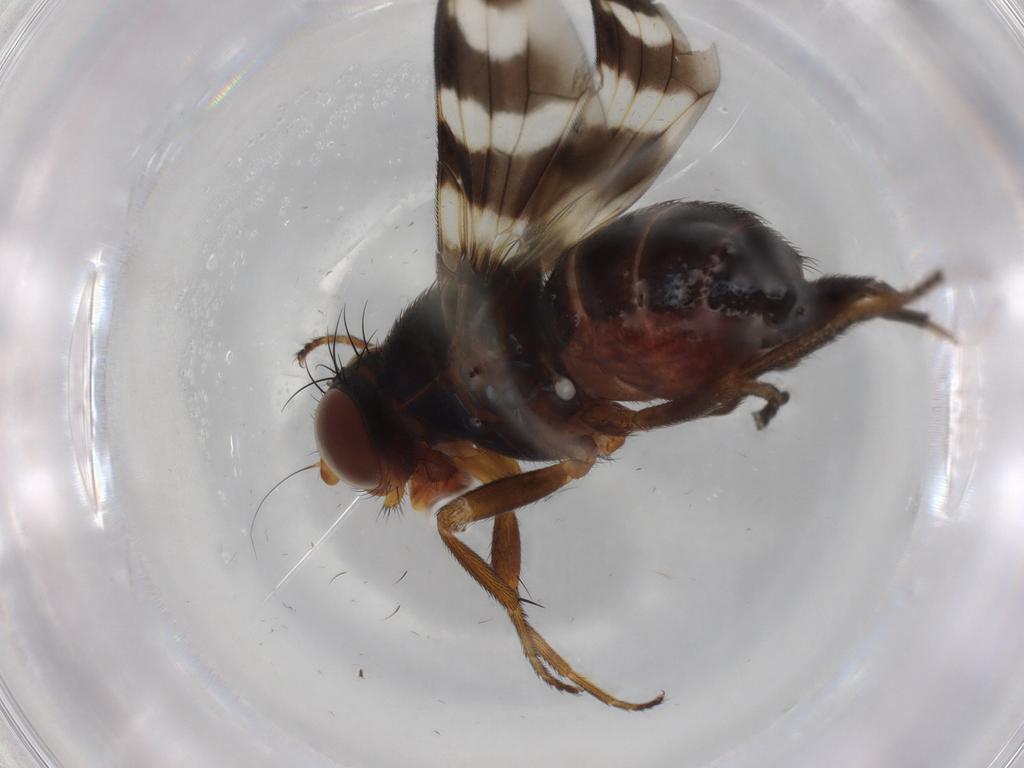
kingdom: Animalia
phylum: Arthropoda
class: Insecta
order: Diptera
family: Ulidiidae
